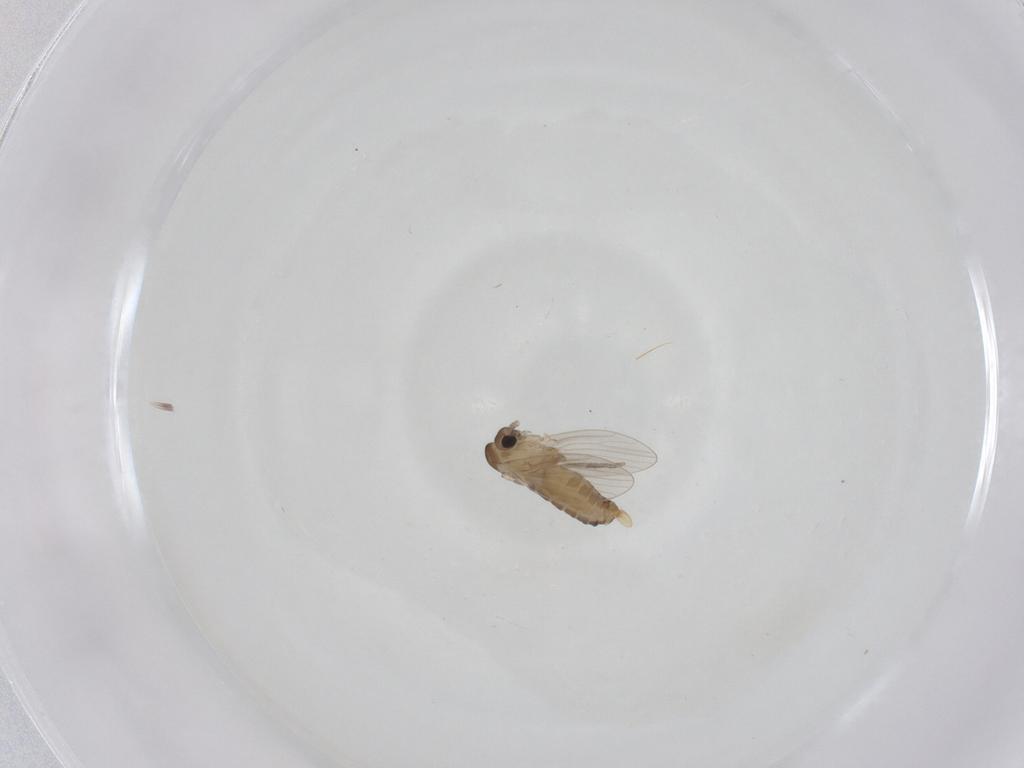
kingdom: Animalia
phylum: Arthropoda
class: Insecta
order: Diptera
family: Psychodidae
